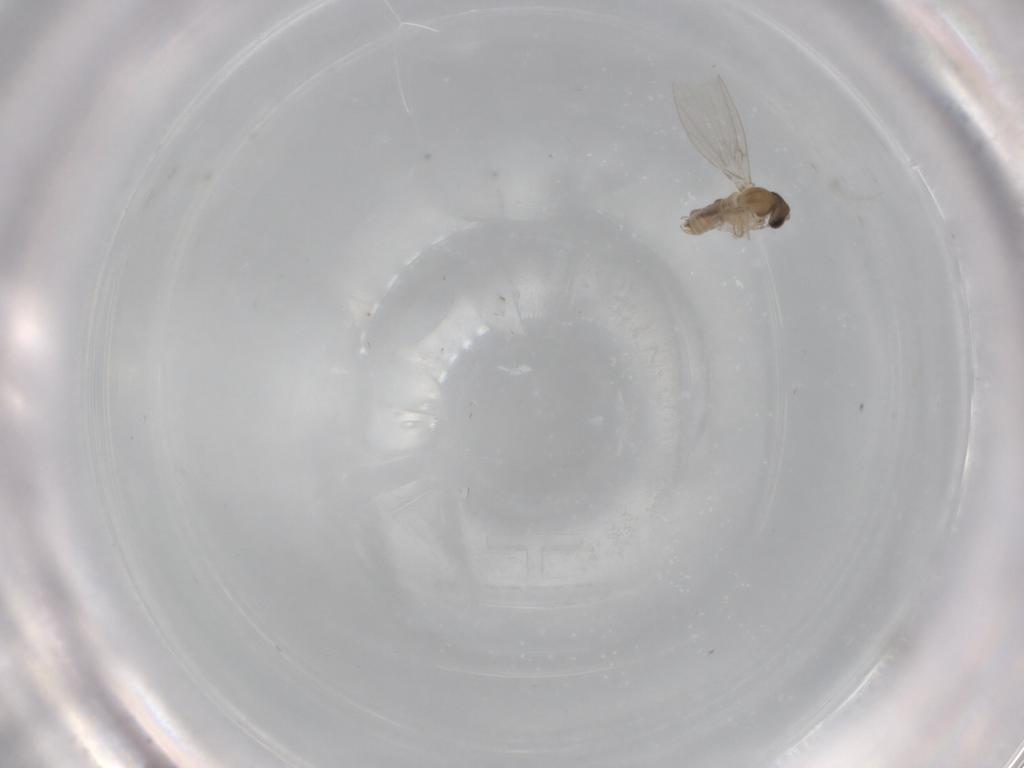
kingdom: Animalia
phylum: Arthropoda
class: Insecta
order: Diptera
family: Psychodidae
